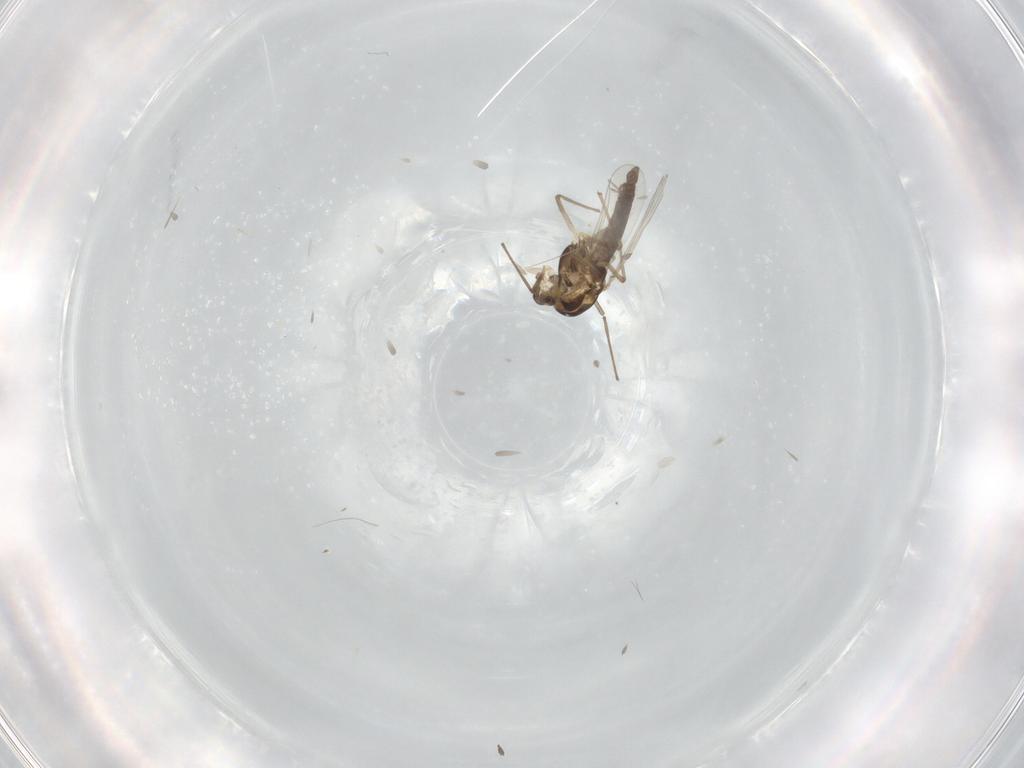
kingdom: Animalia
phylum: Arthropoda
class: Insecta
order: Diptera
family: Chironomidae
